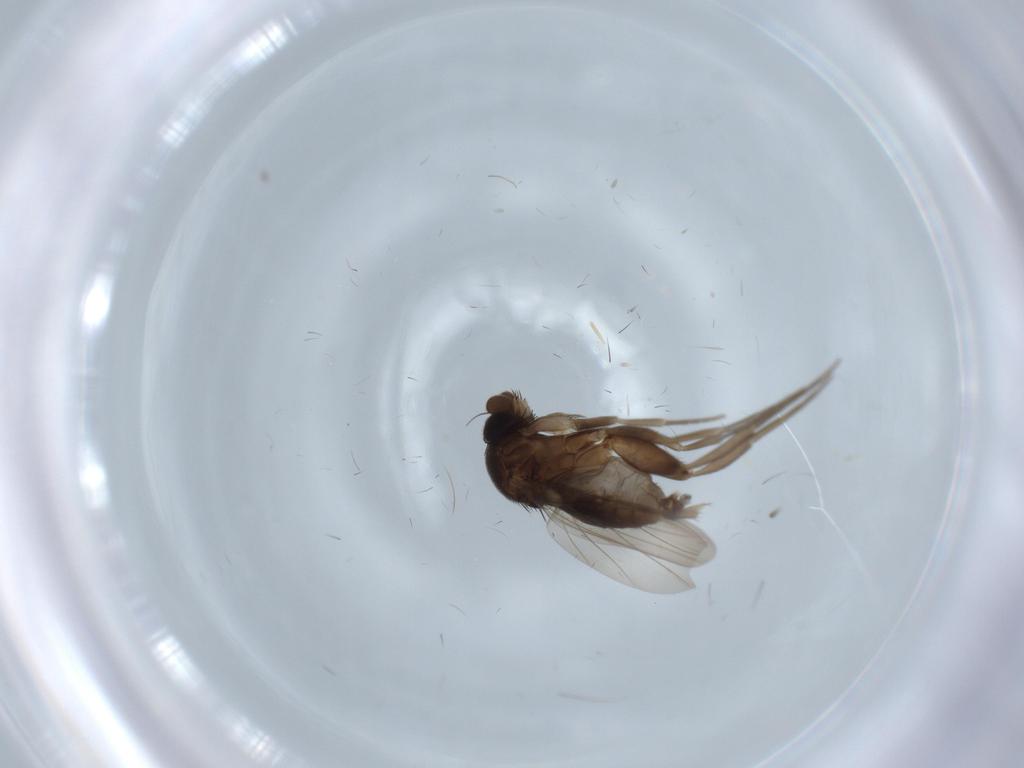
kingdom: Animalia
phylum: Arthropoda
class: Insecta
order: Diptera
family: Phoridae
